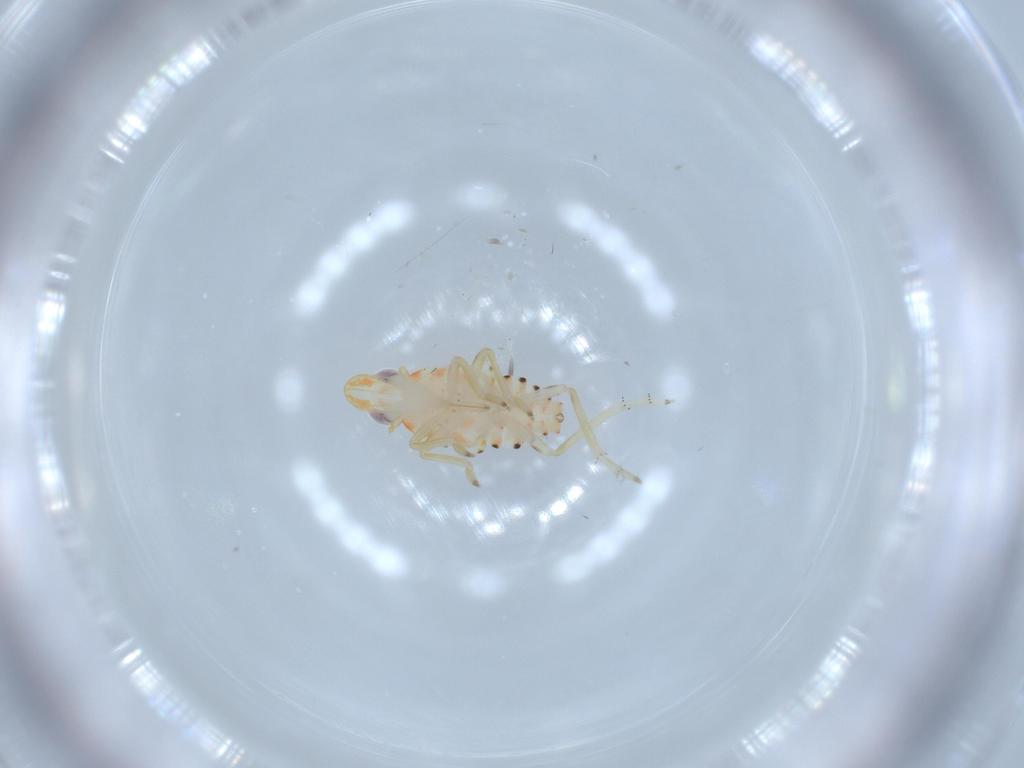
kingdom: Animalia
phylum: Arthropoda
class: Insecta
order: Hemiptera
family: Tropiduchidae
